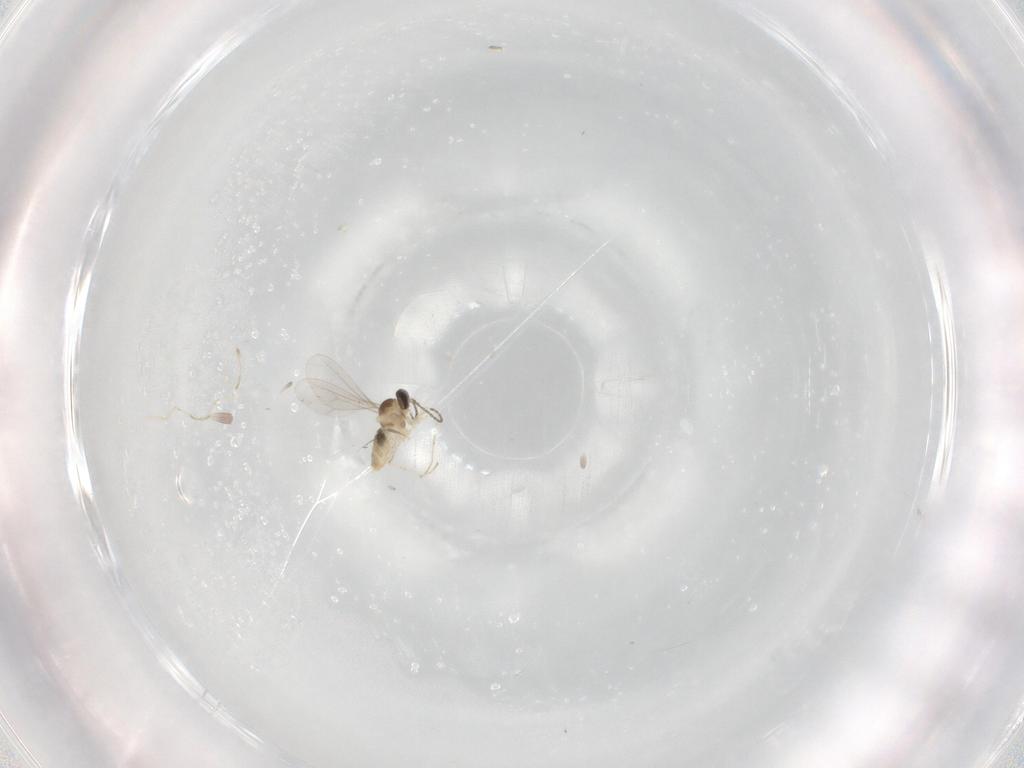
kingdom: Animalia
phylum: Arthropoda
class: Insecta
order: Diptera
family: Cecidomyiidae
